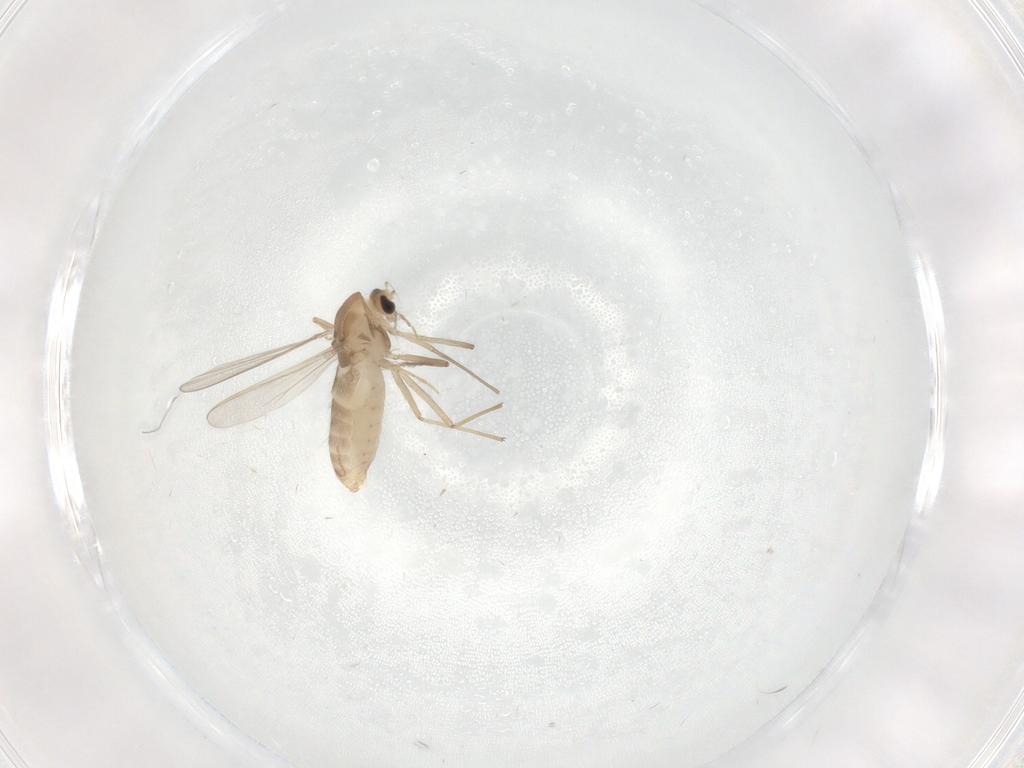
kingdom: Animalia
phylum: Arthropoda
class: Insecta
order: Diptera
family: Chironomidae
